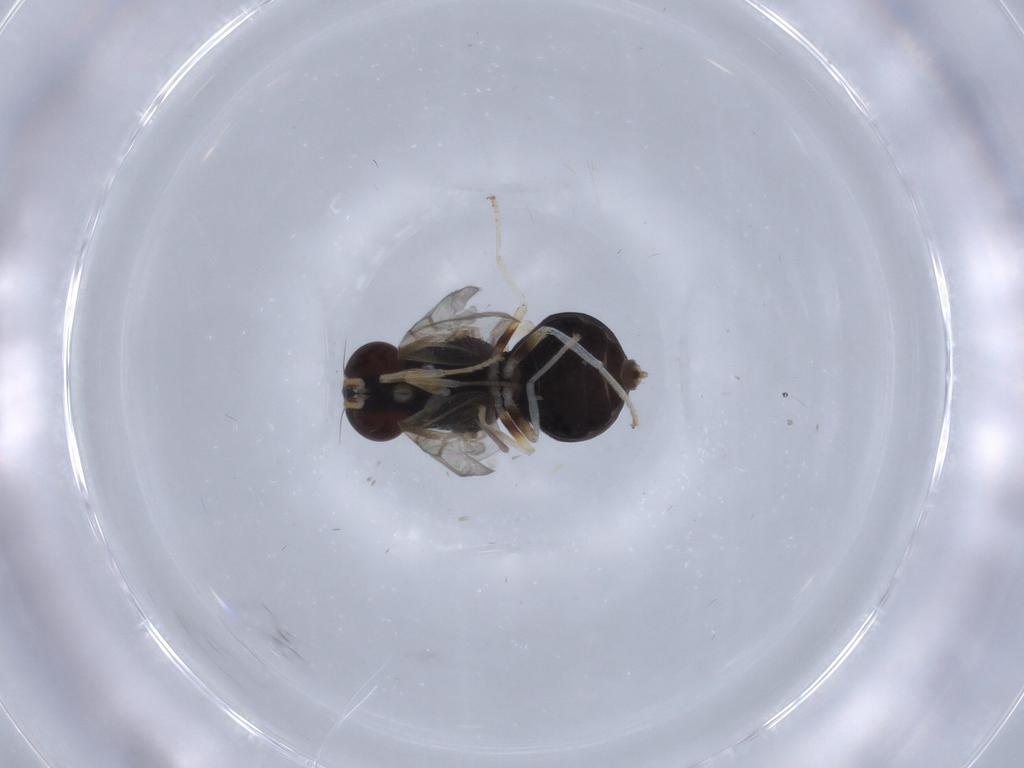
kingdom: Animalia
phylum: Arthropoda
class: Insecta
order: Diptera
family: Stratiomyidae
